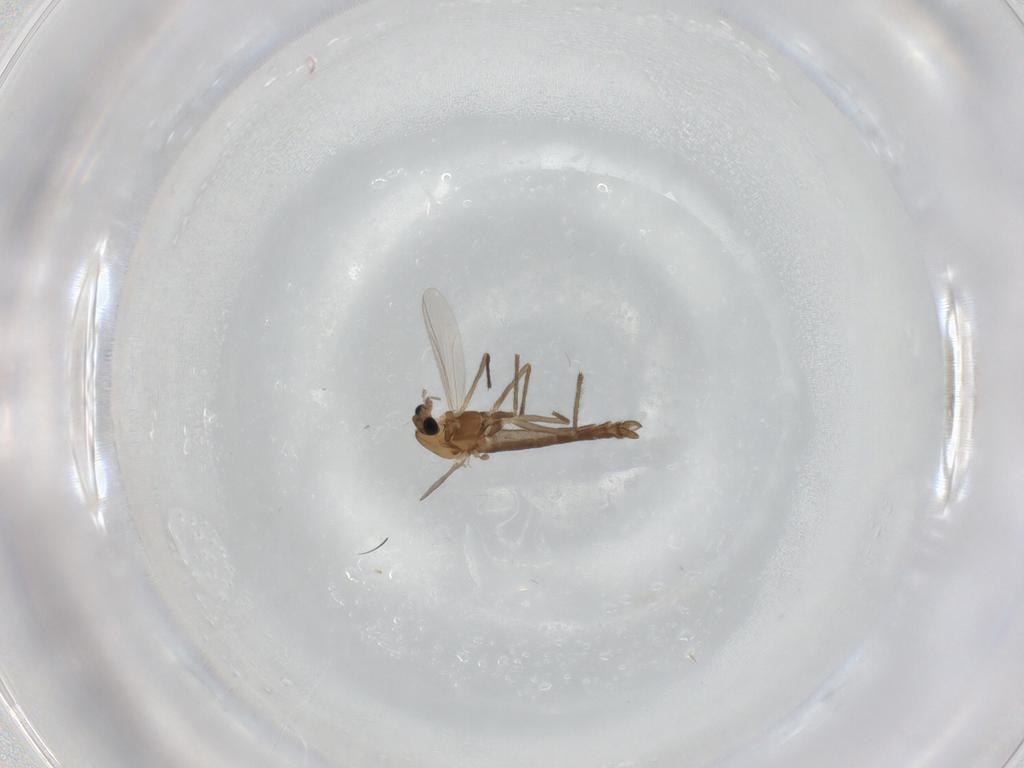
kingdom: Animalia
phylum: Arthropoda
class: Insecta
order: Diptera
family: Chironomidae
